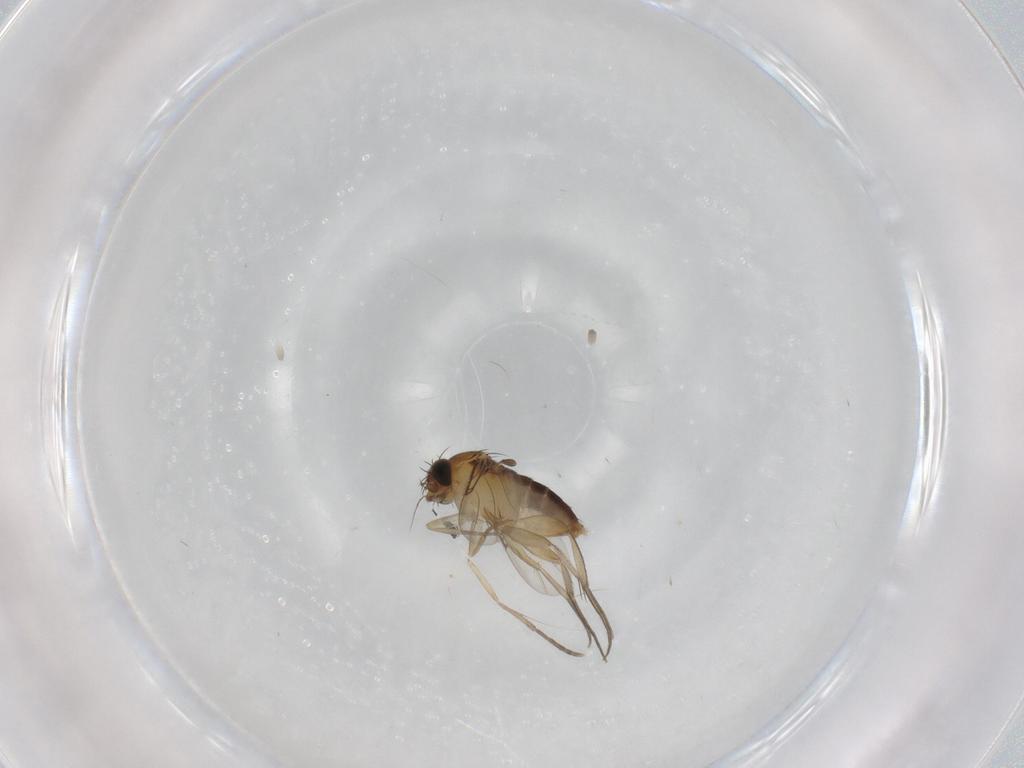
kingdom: Animalia
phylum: Arthropoda
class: Insecta
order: Diptera
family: Phoridae
